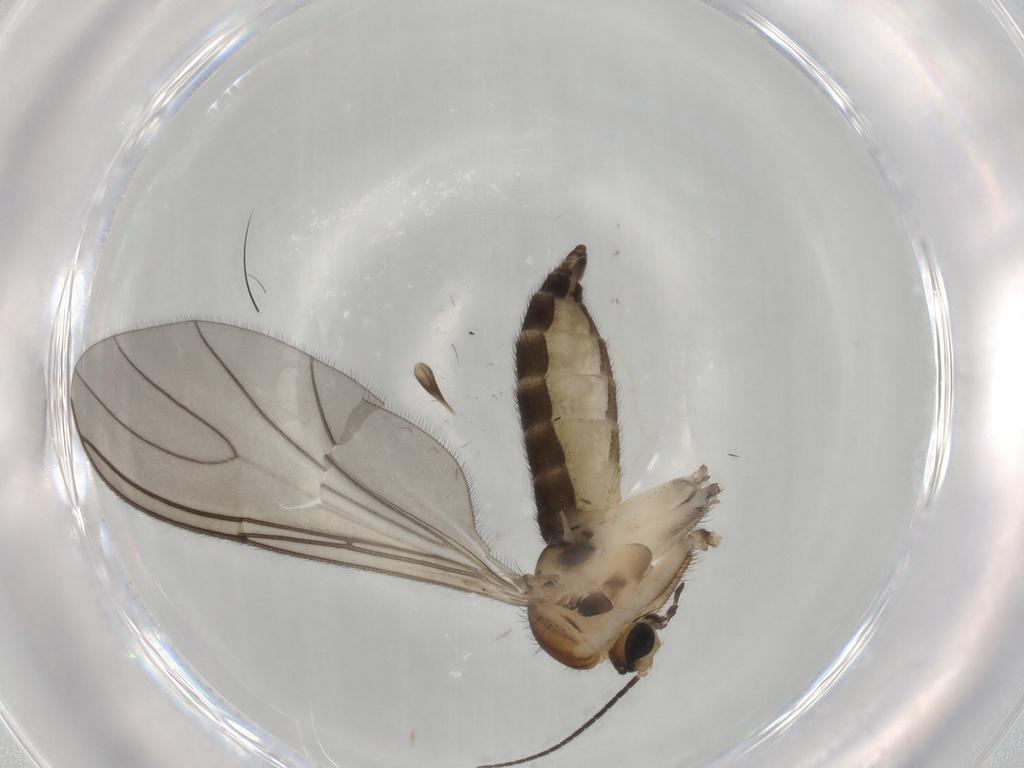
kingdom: Animalia
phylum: Arthropoda
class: Insecta
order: Diptera
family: Sciaridae
